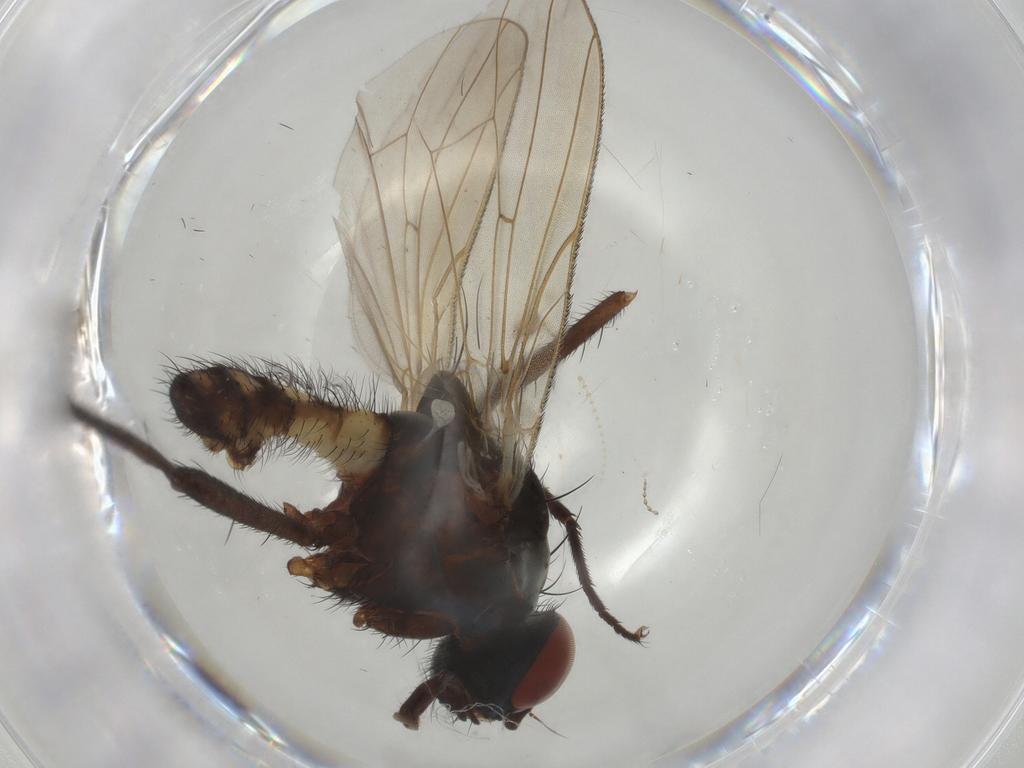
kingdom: Animalia
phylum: Arthropoda
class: Insecta
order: Diptera
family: Anthomyiidae
